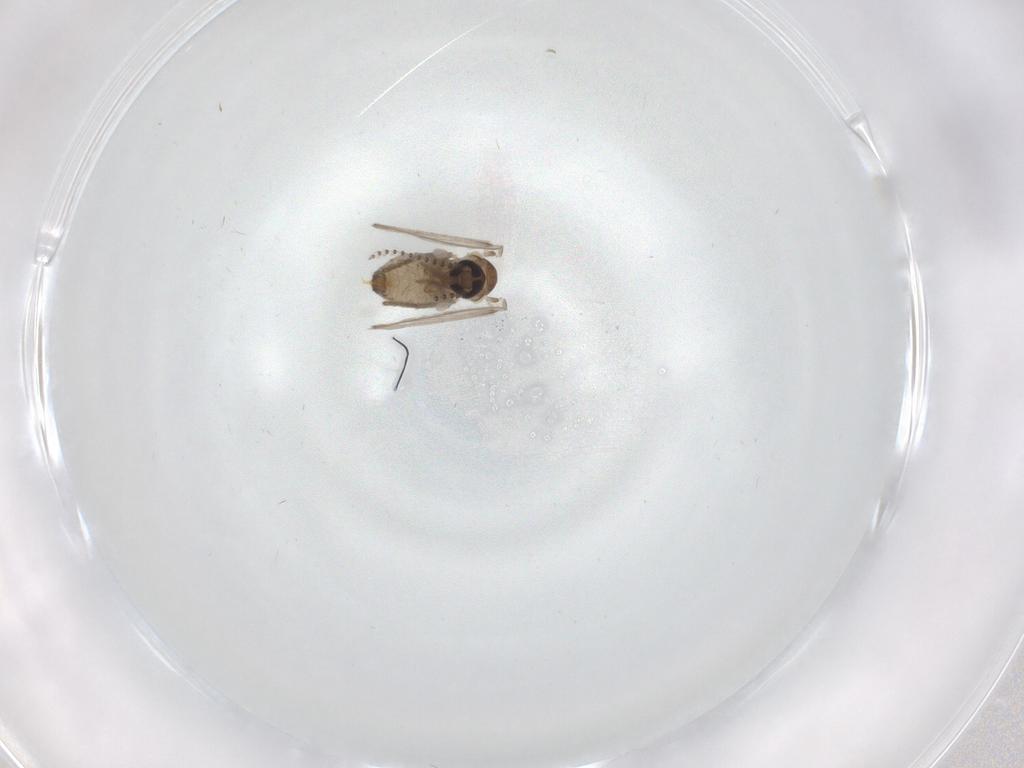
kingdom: Animalia
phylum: Arthropoda
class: Insecta
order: Diptera
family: Psychodidae
